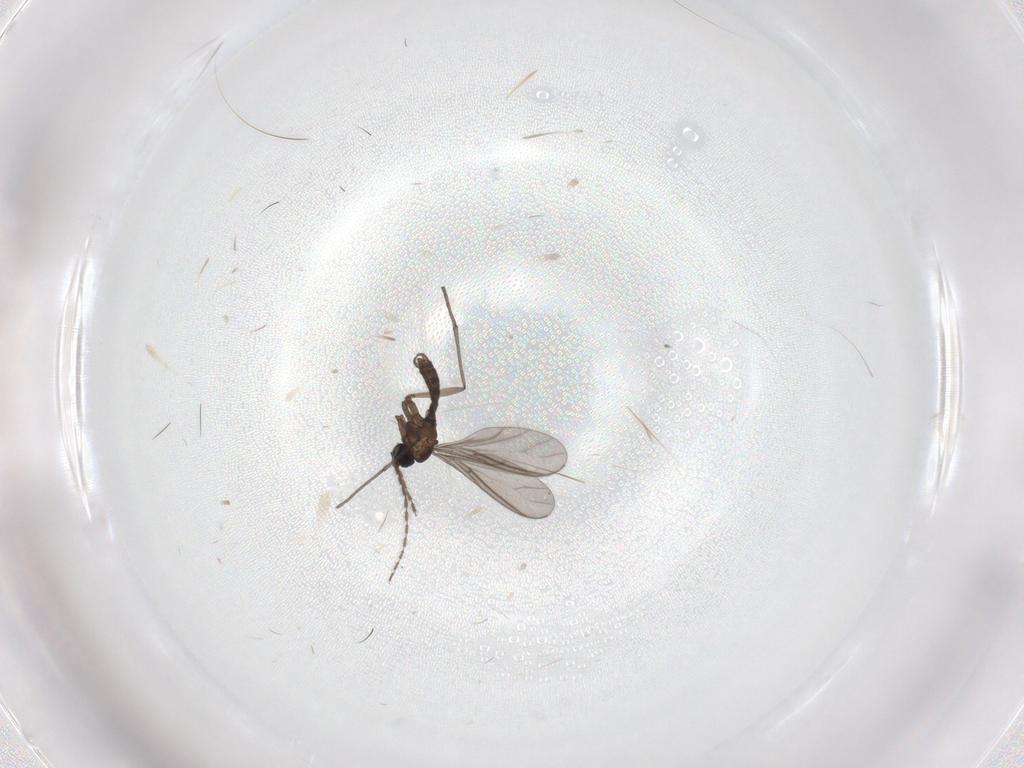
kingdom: Animalia
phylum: Arthropoda
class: Insecta
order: Diptera
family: Sciaridae
